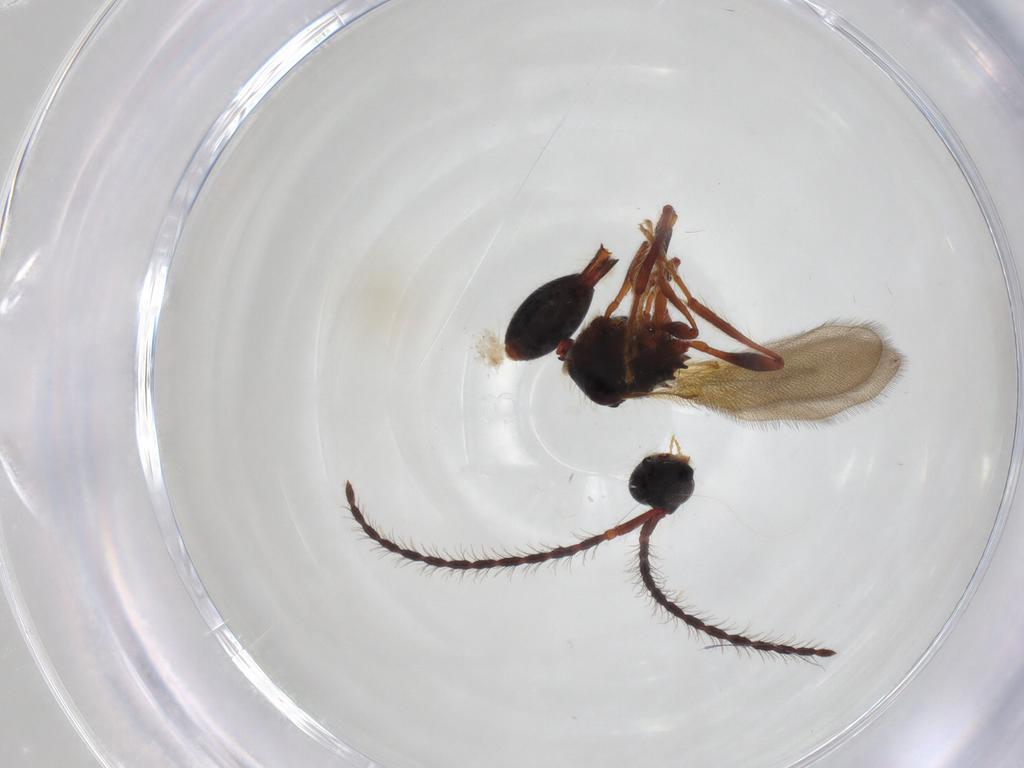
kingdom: Animalia
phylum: Arthropoda
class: Insecta
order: Hymenoptera
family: Diapriidae
